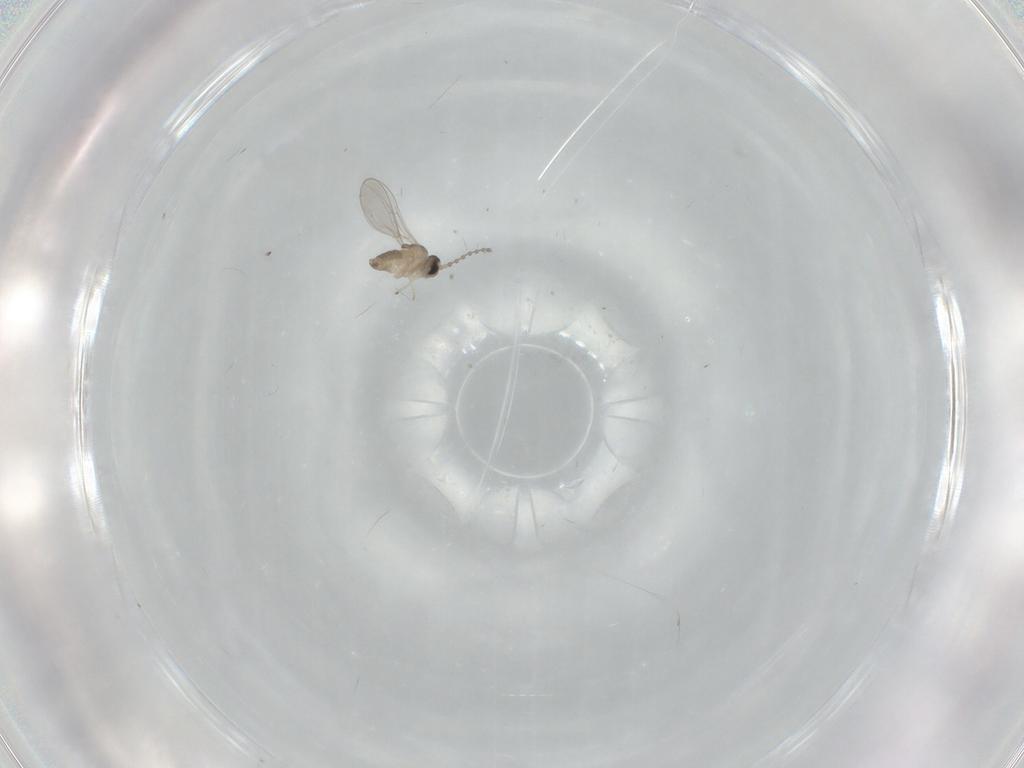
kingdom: Animalia
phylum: Arthropoda
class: Insecta
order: Diptera
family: Cecidomyiidae
